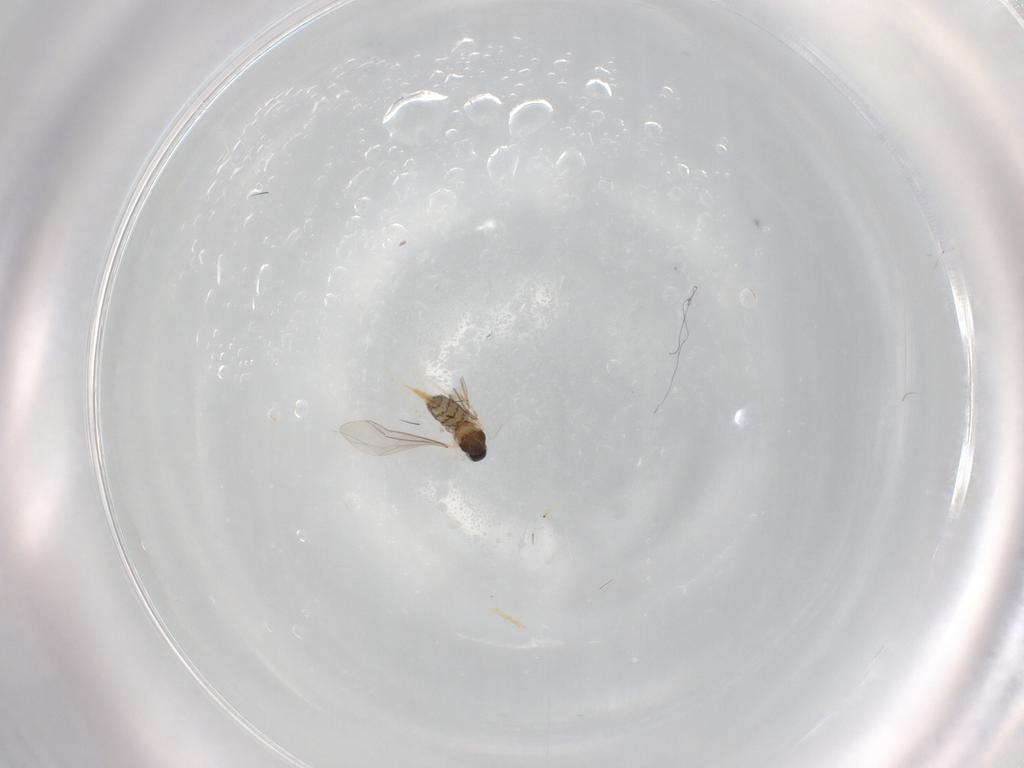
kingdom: Animalia
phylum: Arthropoda
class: Insecta
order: Diptera
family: Cecidomyiidae
